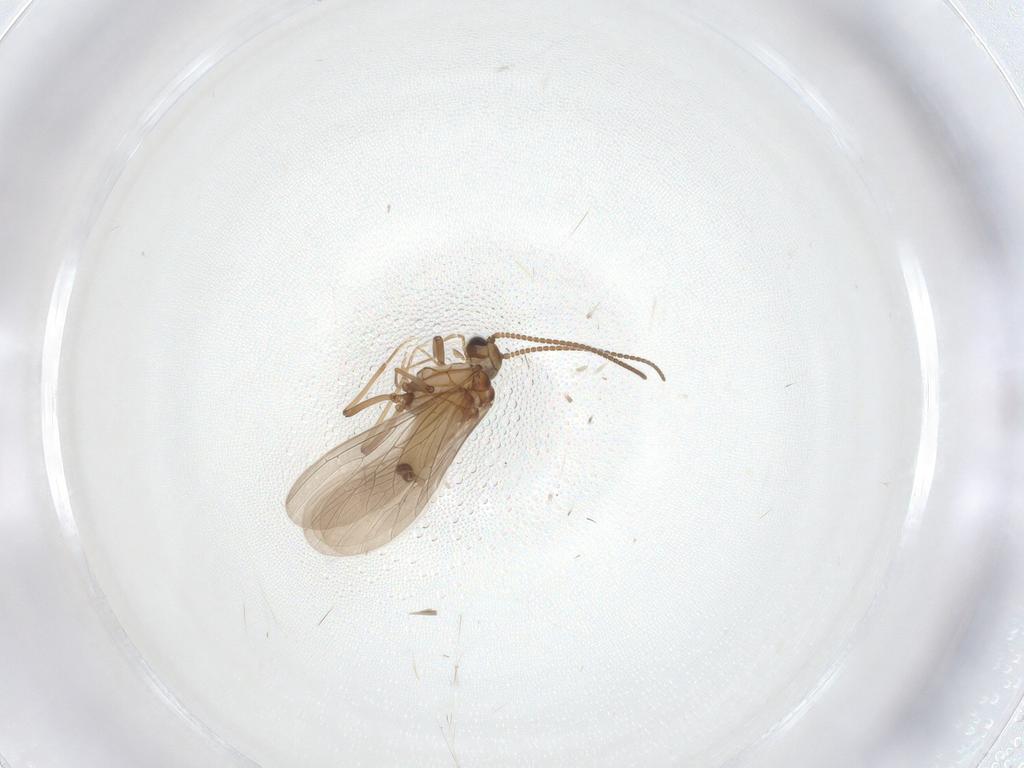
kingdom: Animalia
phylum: Arthropoda
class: Insecta
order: Neuroptera
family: Coniopterygidae
